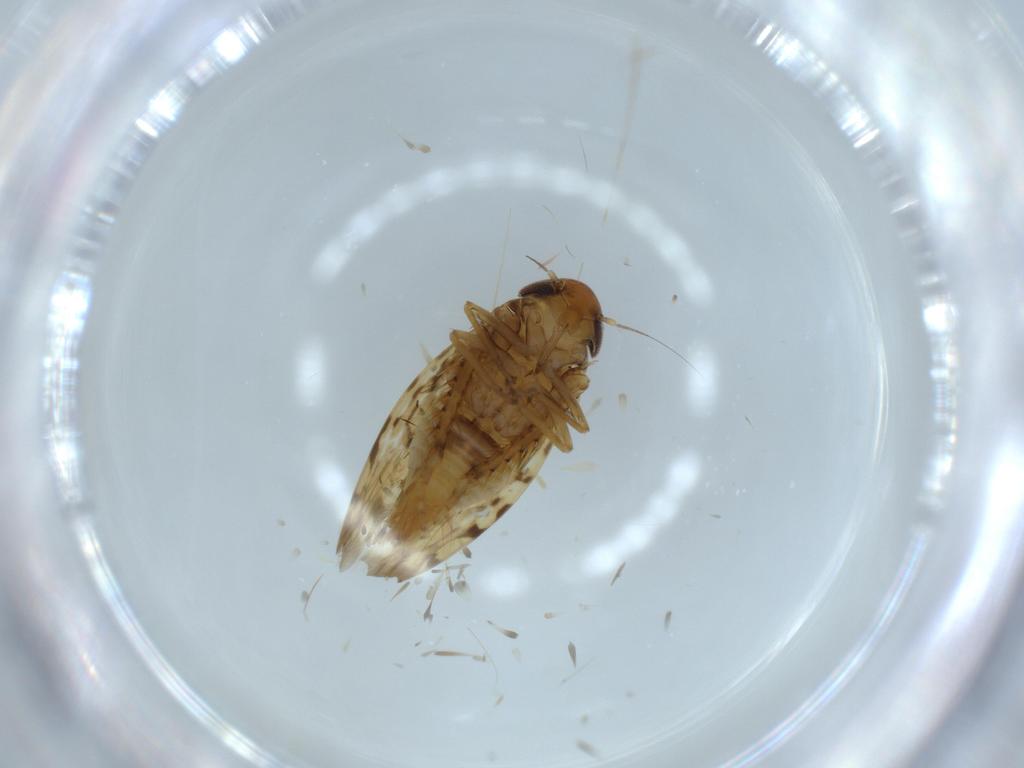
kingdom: Animalia
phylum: Arthropoda
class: Insecta
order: Hemiptera
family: Cicadellidae
